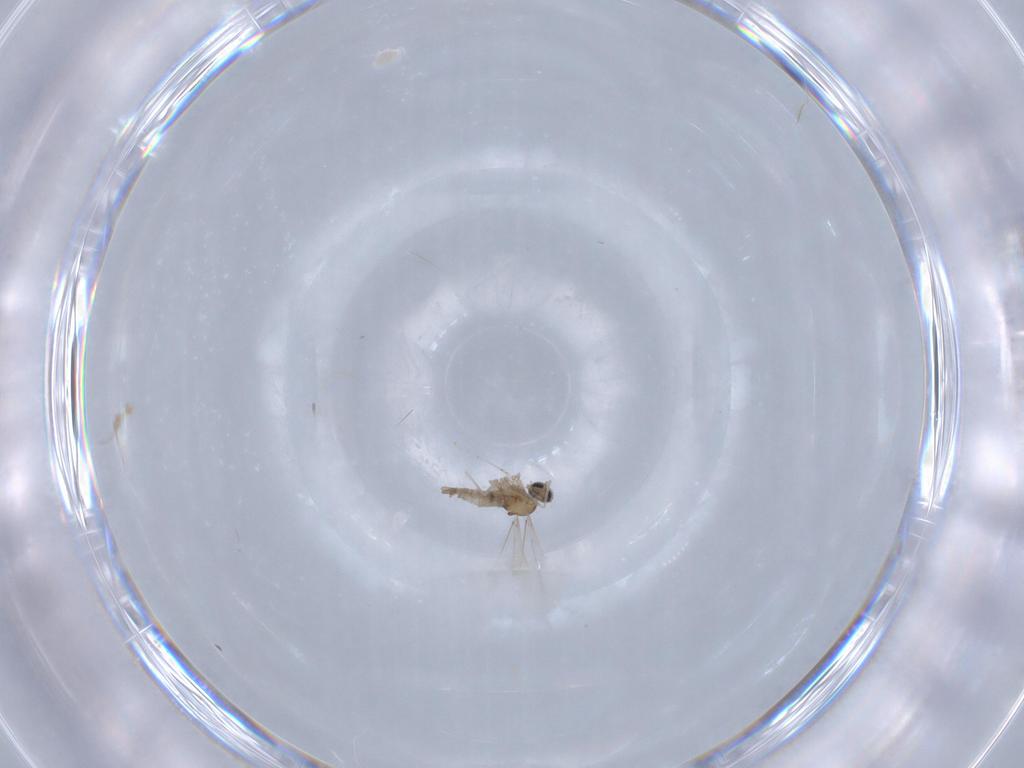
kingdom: Animalia
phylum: Arthropoda
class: Insecta
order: Diptera
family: Cecidomyiidae
